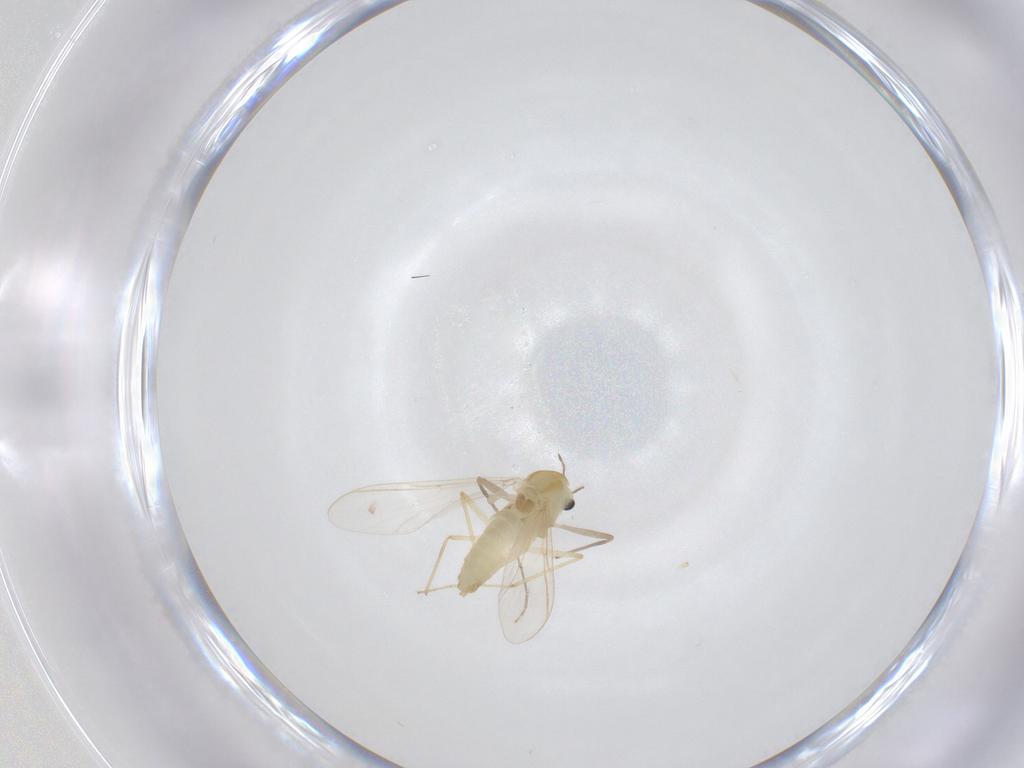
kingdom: Animalia
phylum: Arthropoda
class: Insecta
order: Diptera
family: Chironomidae
